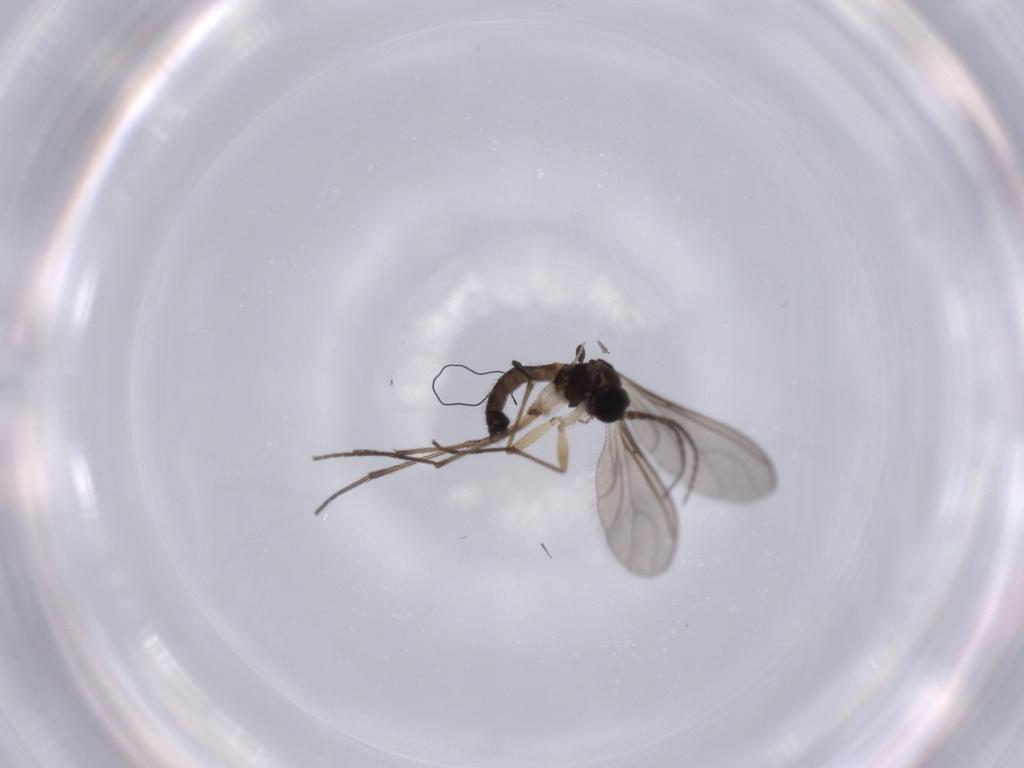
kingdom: Animalia
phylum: Arthropoda
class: Insecta
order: Diptera
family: Sciaridae
